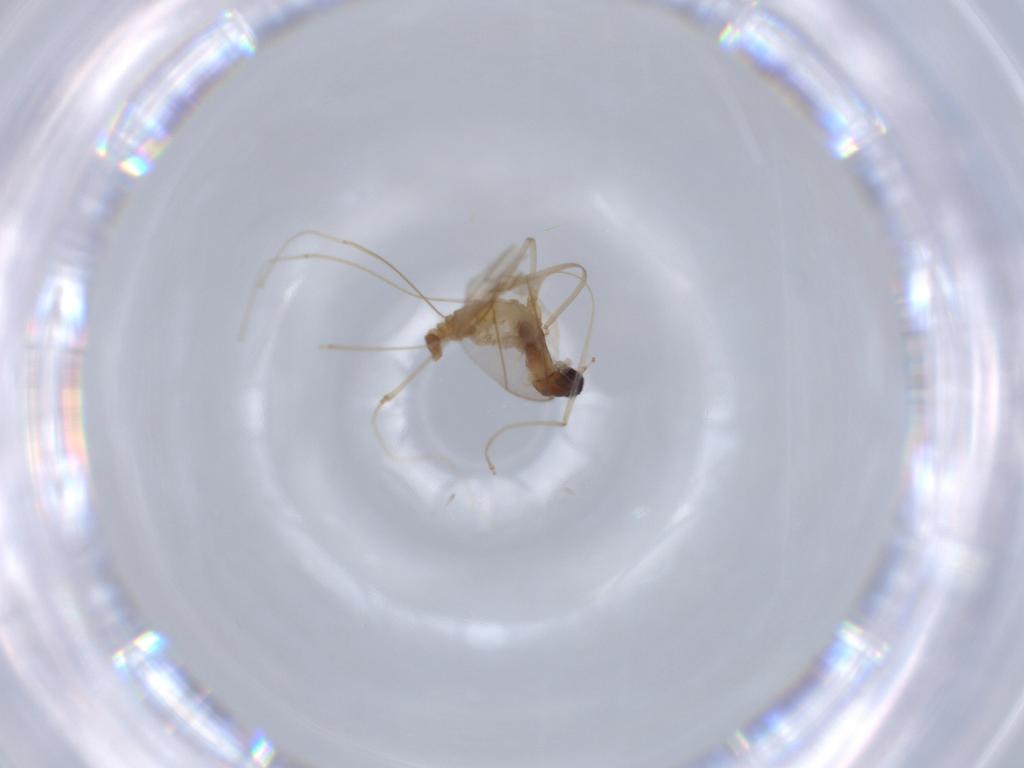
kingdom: Animalia
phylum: Arthropoda
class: Insecta
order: Diptera
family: Cecidomyiidae
